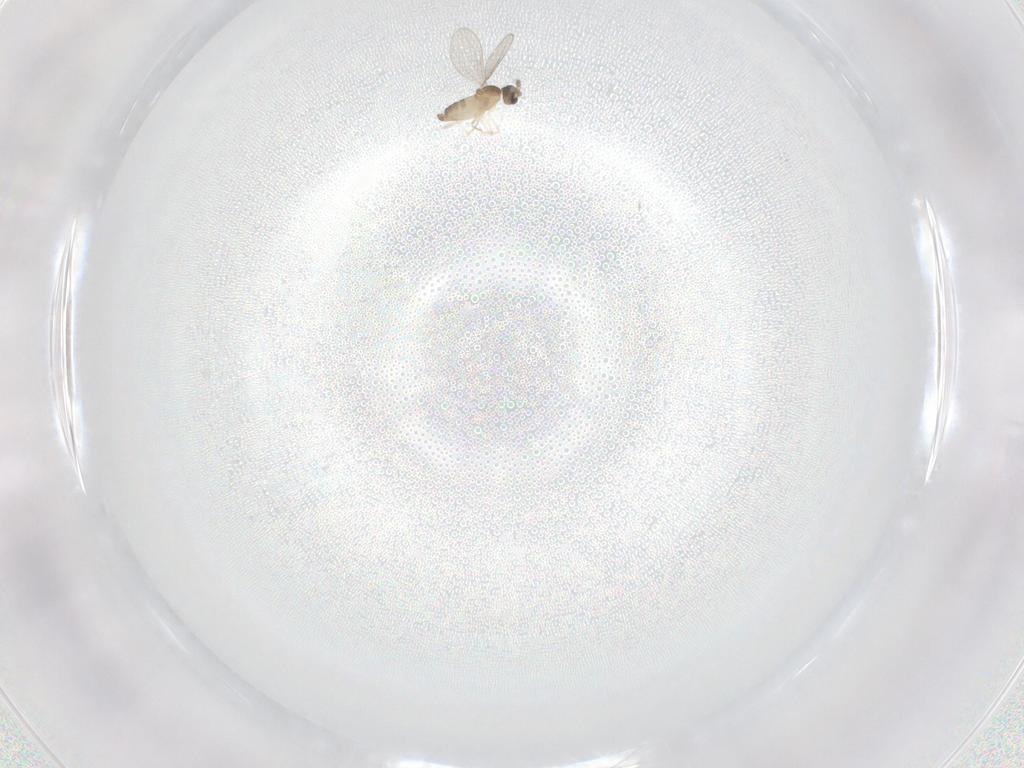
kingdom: Animalia
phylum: Arthropoda
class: Insecta
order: Diptera
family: Cecidomyiidae
